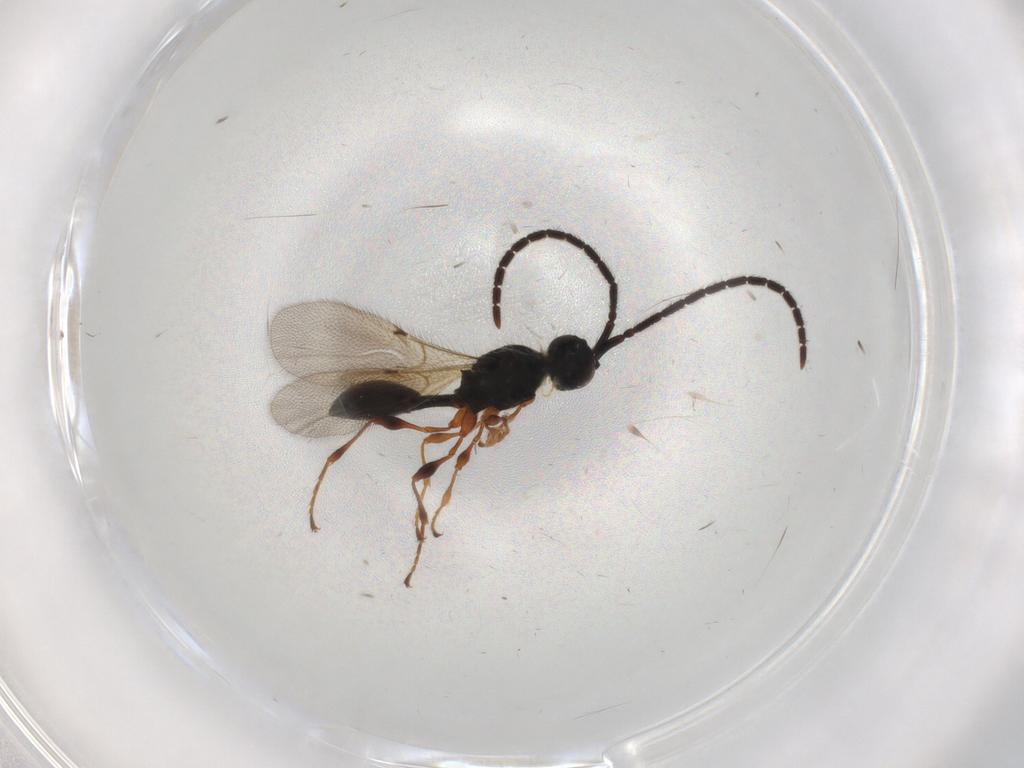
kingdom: Animalia
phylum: Arthropoda
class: Insecta
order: Hymenoptera
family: Diapriidae
